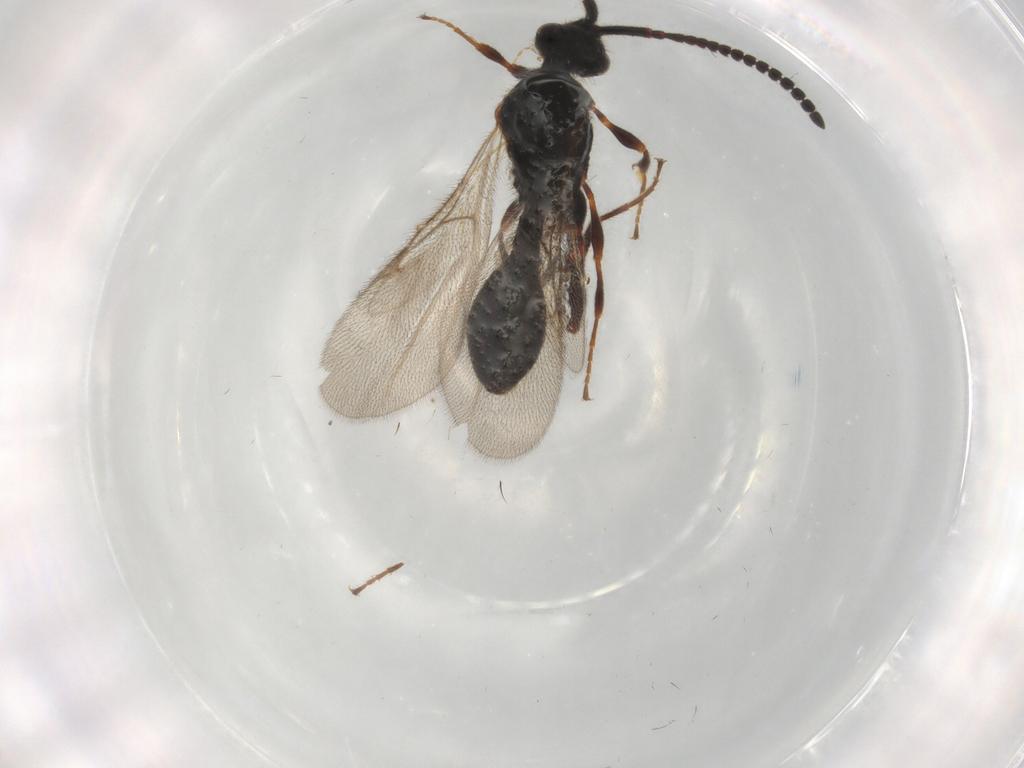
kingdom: Animalia
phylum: Arthropoda
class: Insecta
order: Hymenoptera
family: Diapriidae
